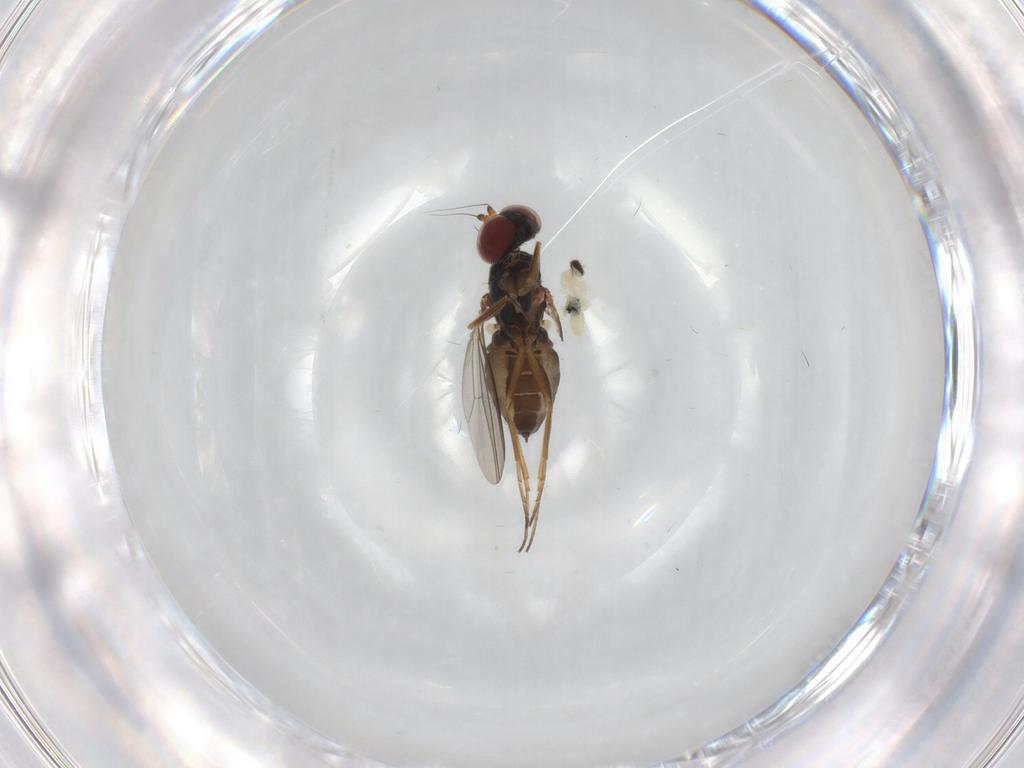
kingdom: Animalia
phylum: Arthropoda
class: Insecta
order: Diptera
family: Dolichopodidae
